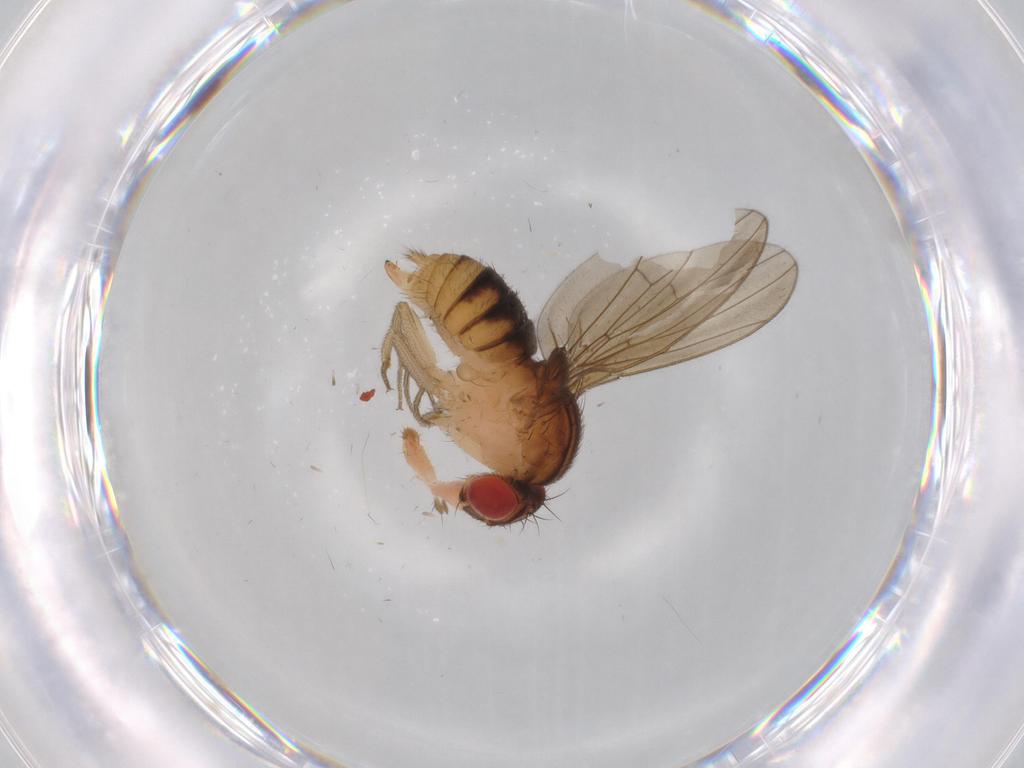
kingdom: Animalia
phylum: Arthropoda
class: Insecta
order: Diptera
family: Drosophilidae
